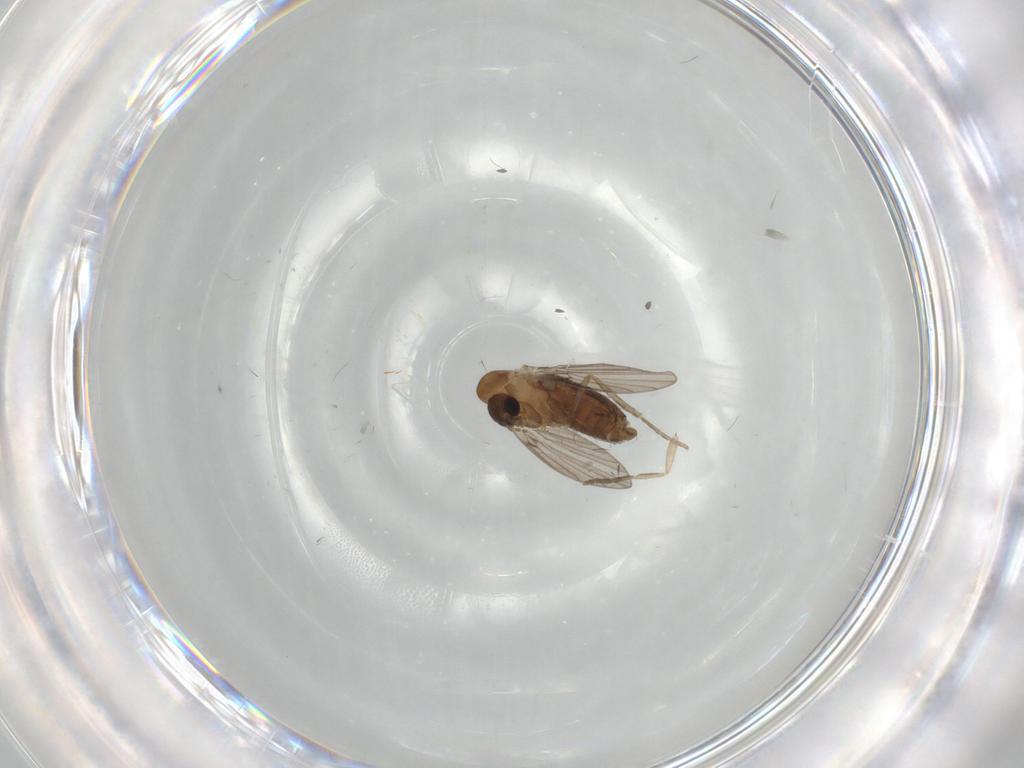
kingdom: Animalia
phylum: Arthropoda
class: Insecta
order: Diptera
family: Psychodidae
